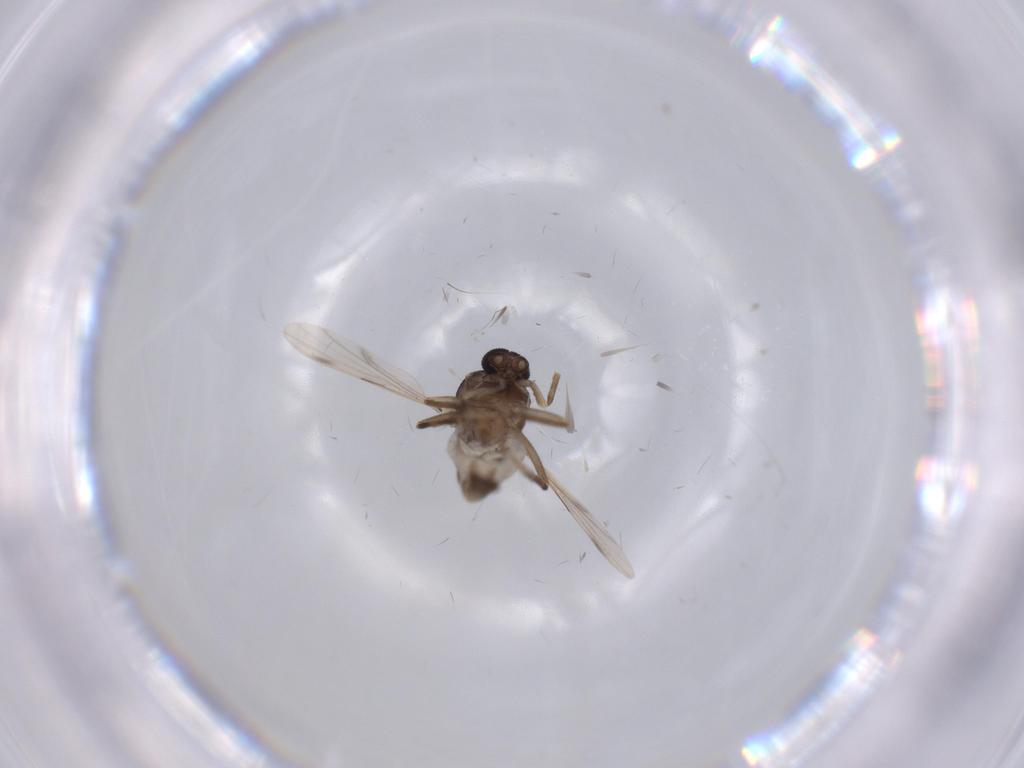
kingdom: Animalia
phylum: Arthropoda
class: Insecta
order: Diptera
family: Ceratopogonidae
